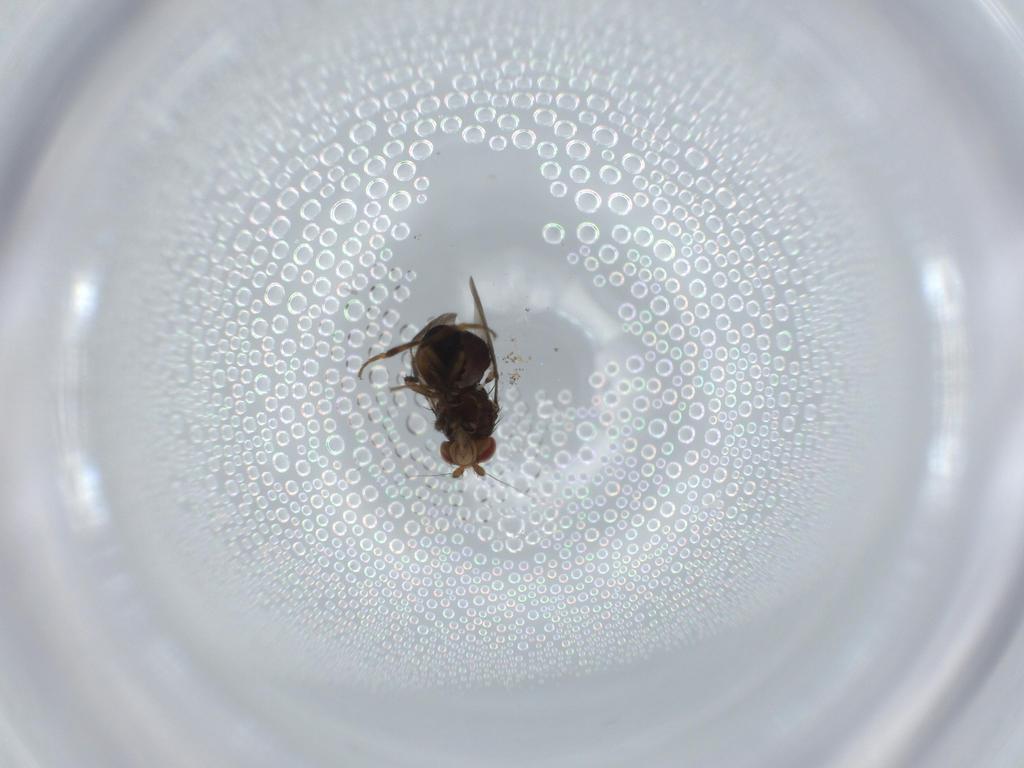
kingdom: Animalia
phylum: Arthropoda
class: Insecta
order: Diptera
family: Sphaeroceridae
